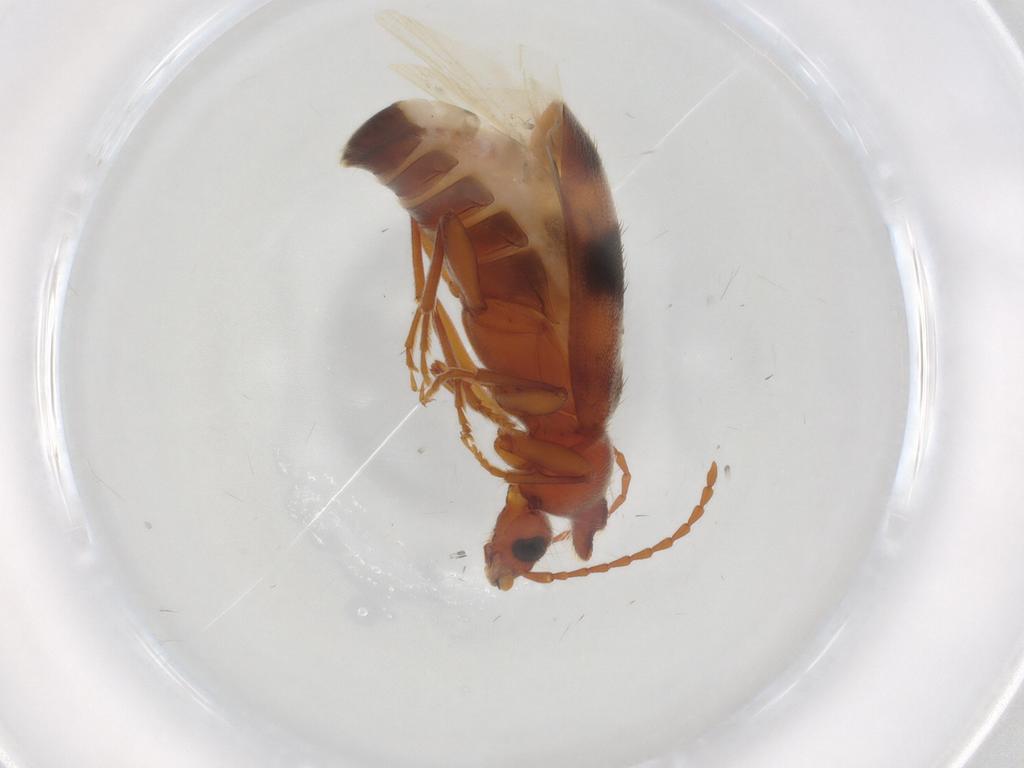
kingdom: Animalia
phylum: Arthropoda
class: Insecta
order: Coleoptera
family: Anthicidae
